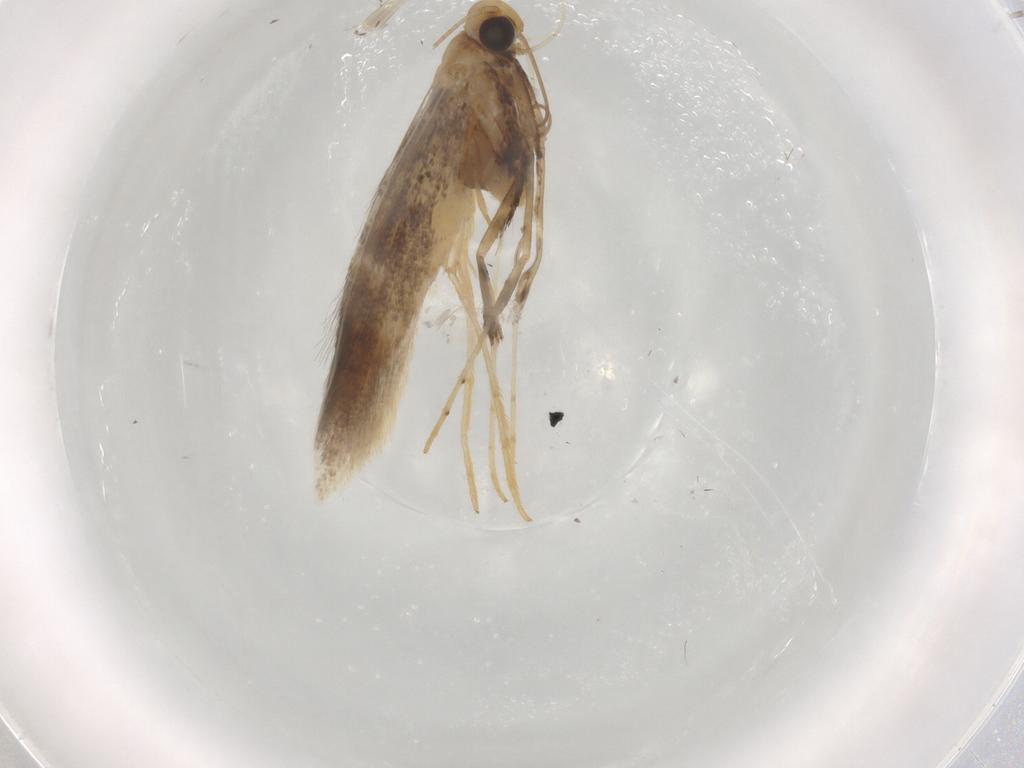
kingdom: Animalia
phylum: Arthropoda
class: Insecta
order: Lepidoptera
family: Gracillariidae
